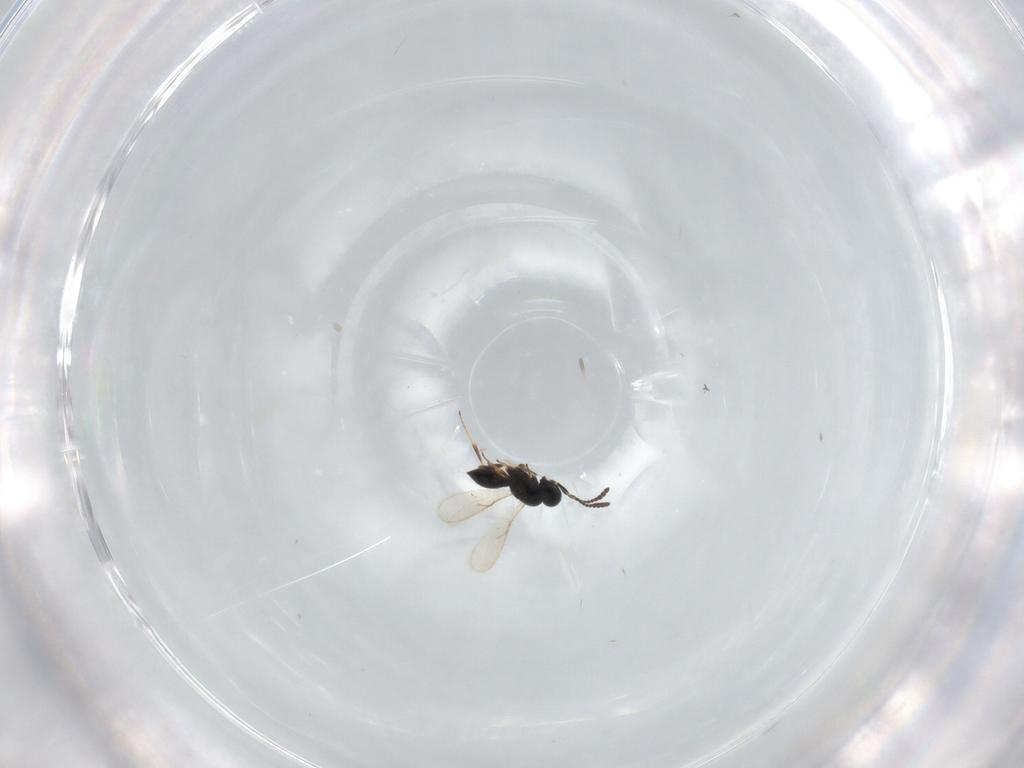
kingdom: Animalia
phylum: Arthropoda
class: Insecta
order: Hymenoptera
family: Scelionidae
